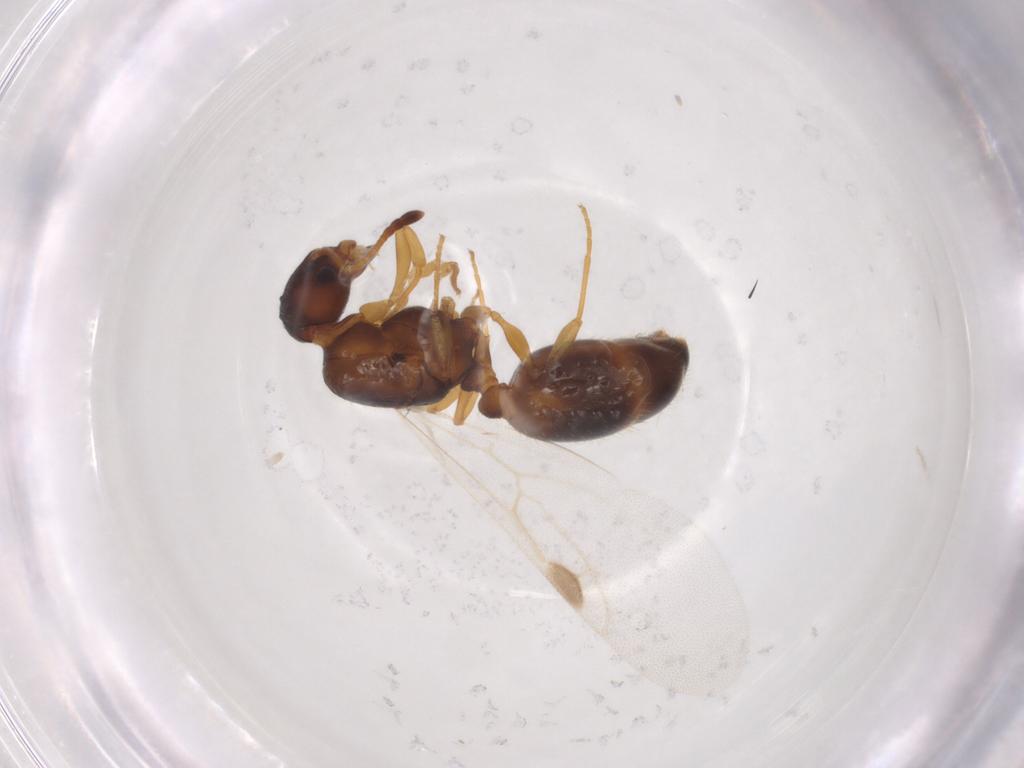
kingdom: Animalia
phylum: Arthropoda
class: Insecta
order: Hymenoptera
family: Formicidae
